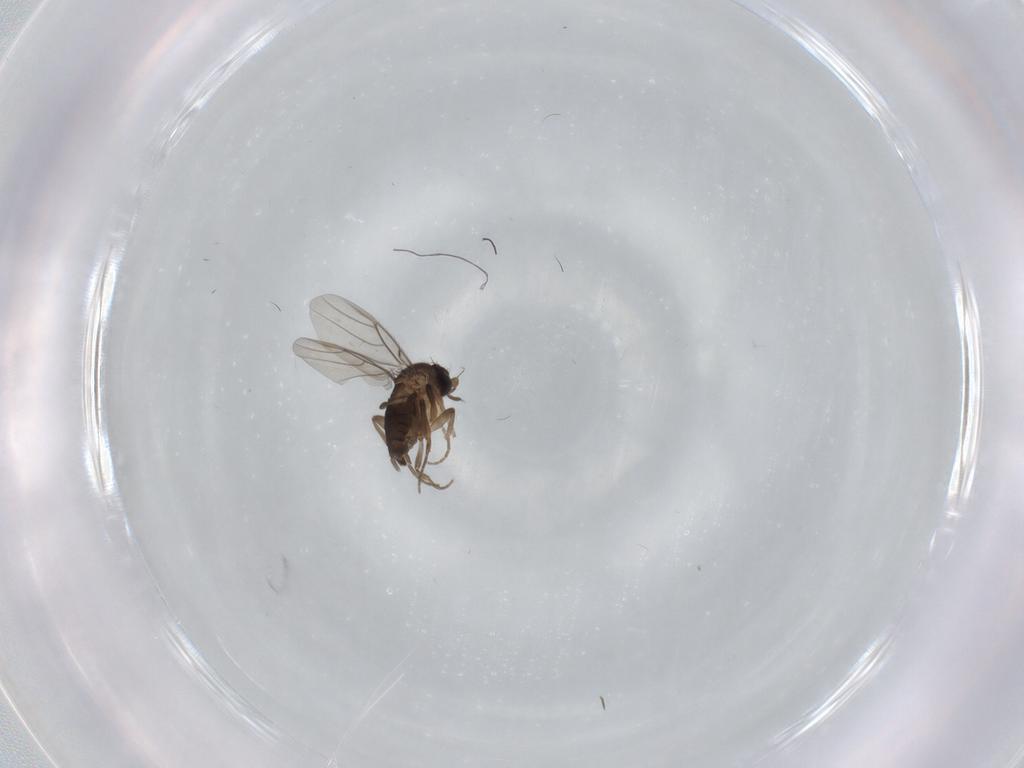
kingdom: Animalia
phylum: Arthropoda
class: Insecta
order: Diptera
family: Phoridae
